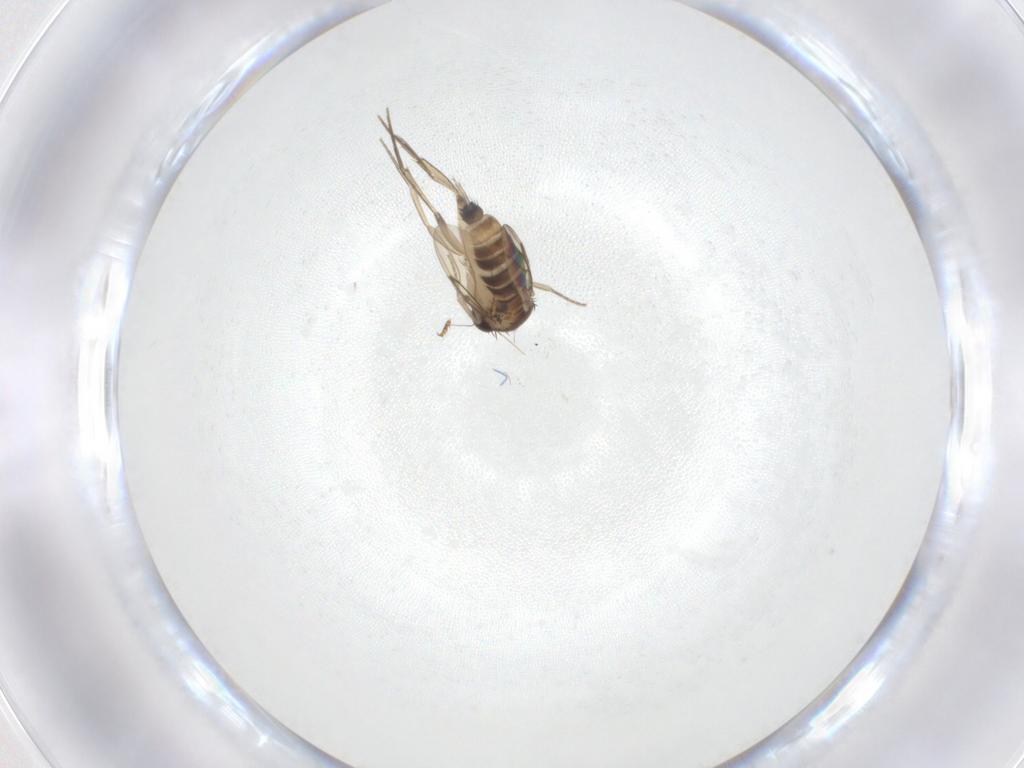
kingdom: Animalia
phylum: Arthropoda
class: Insecta
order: Diptera
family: Phoridae
